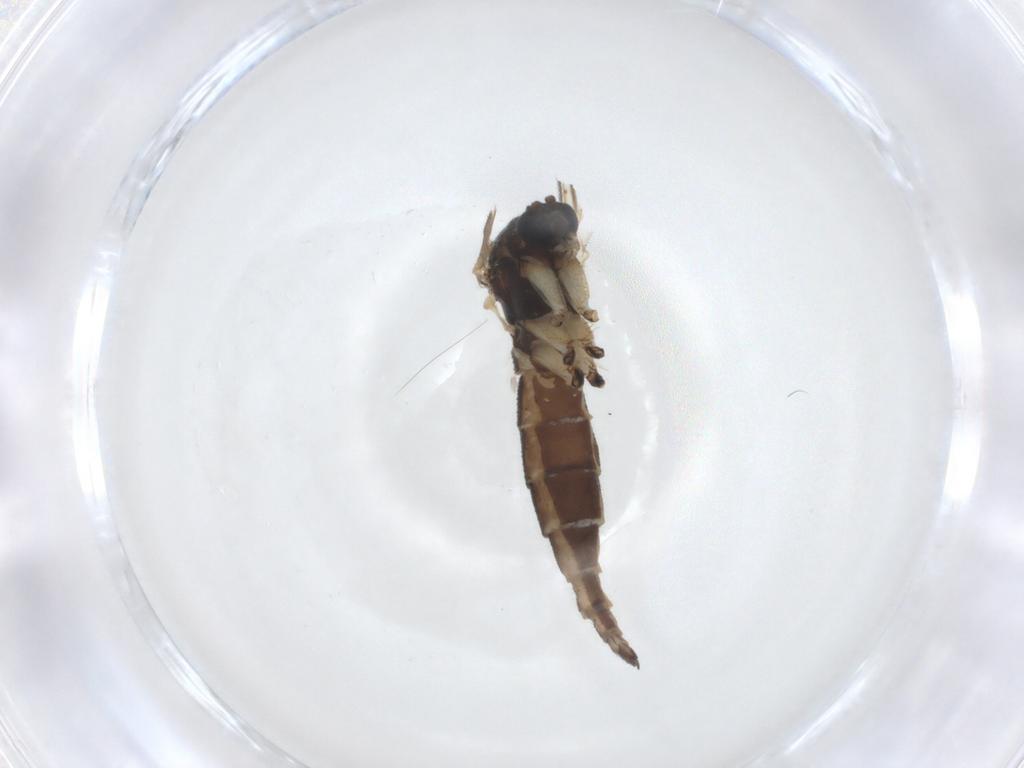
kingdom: Animalia
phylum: Arthropoda
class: Insecta
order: Diptera
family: Sciaridae
